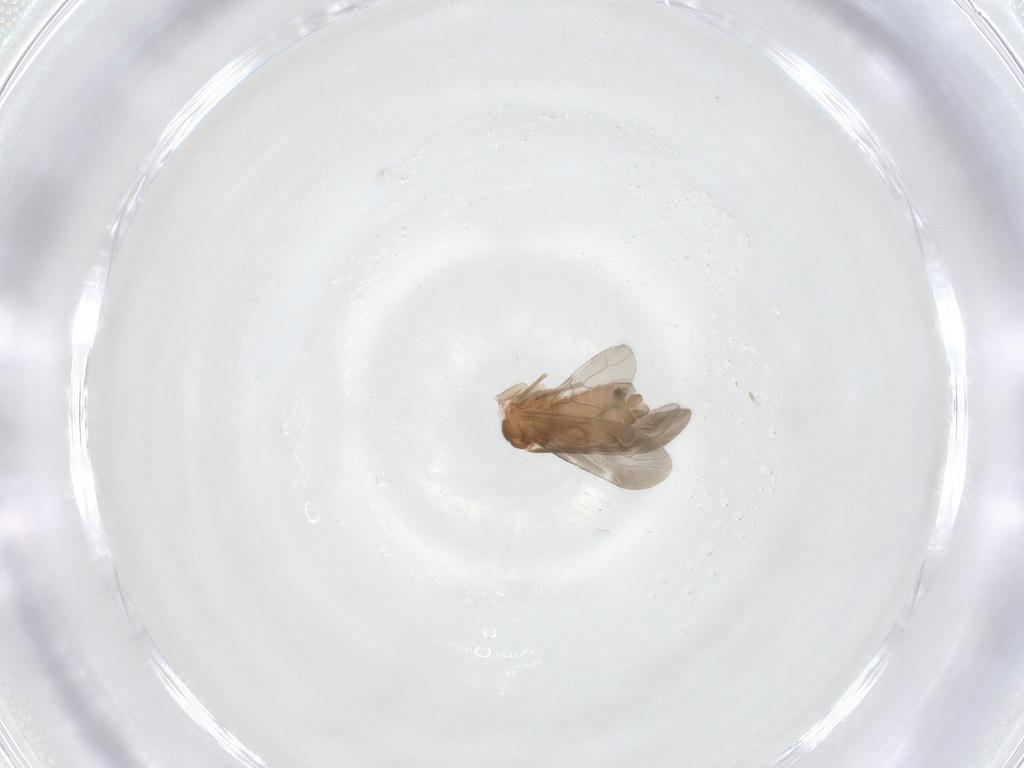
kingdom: Animalia
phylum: Arthropoda
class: Insecta
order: Psocodea
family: Caeciliusidae
